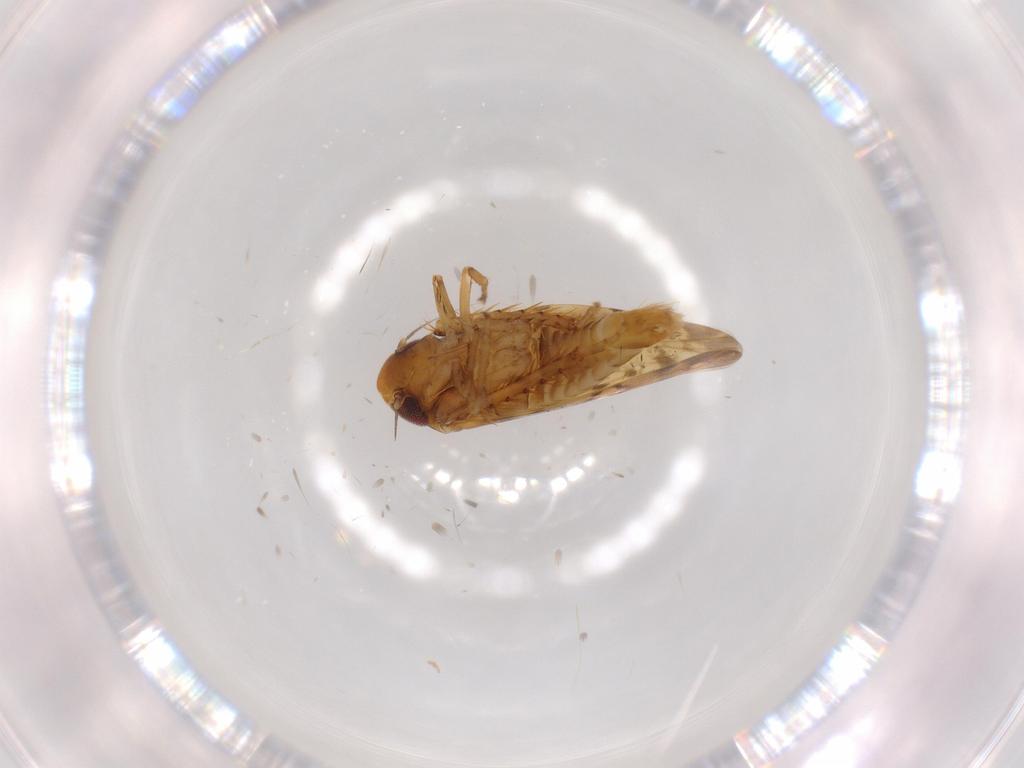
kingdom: Animalia
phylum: Arthropoda
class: Insecta
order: Hemiptera
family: Cicadellidae
